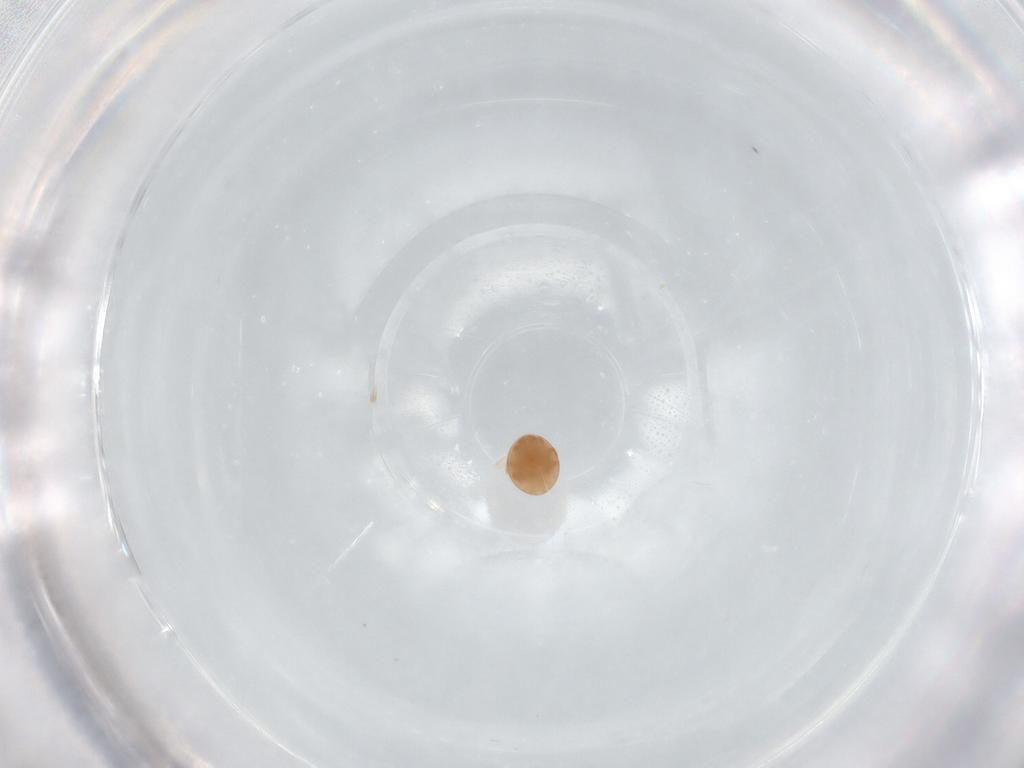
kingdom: Animalia
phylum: Arthropoda
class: Arachnida
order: Mesostigmata
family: Trematuridae
